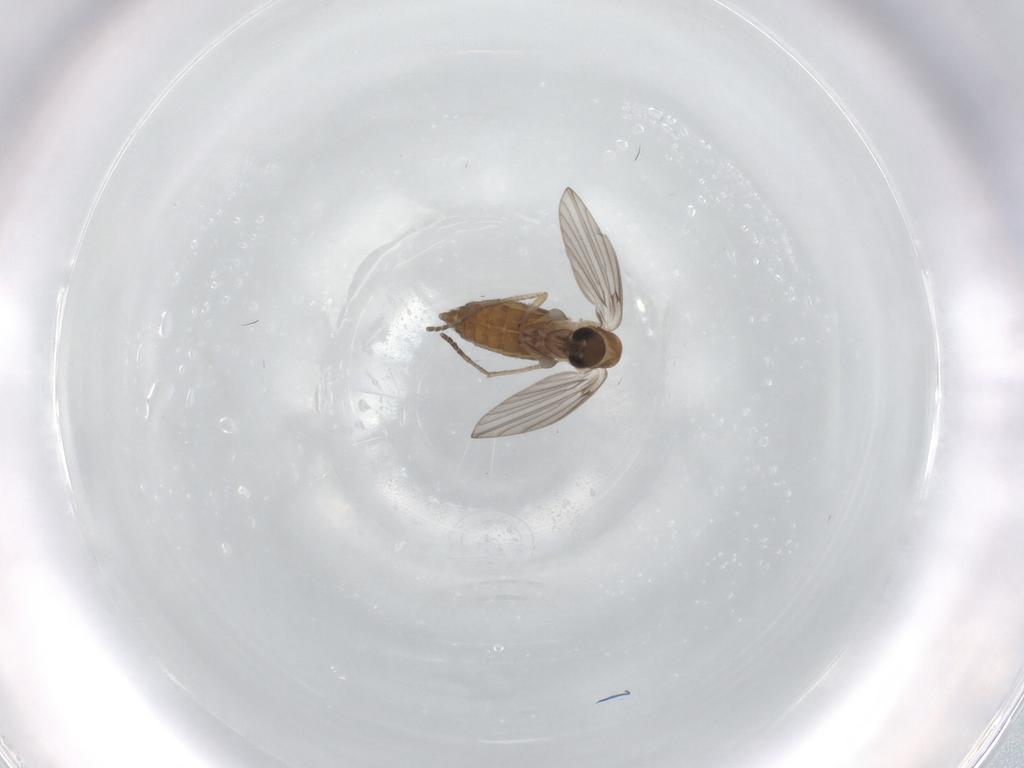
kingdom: Animalia
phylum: Arthropoda
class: Insecta
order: Diptera
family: Psychodidae
